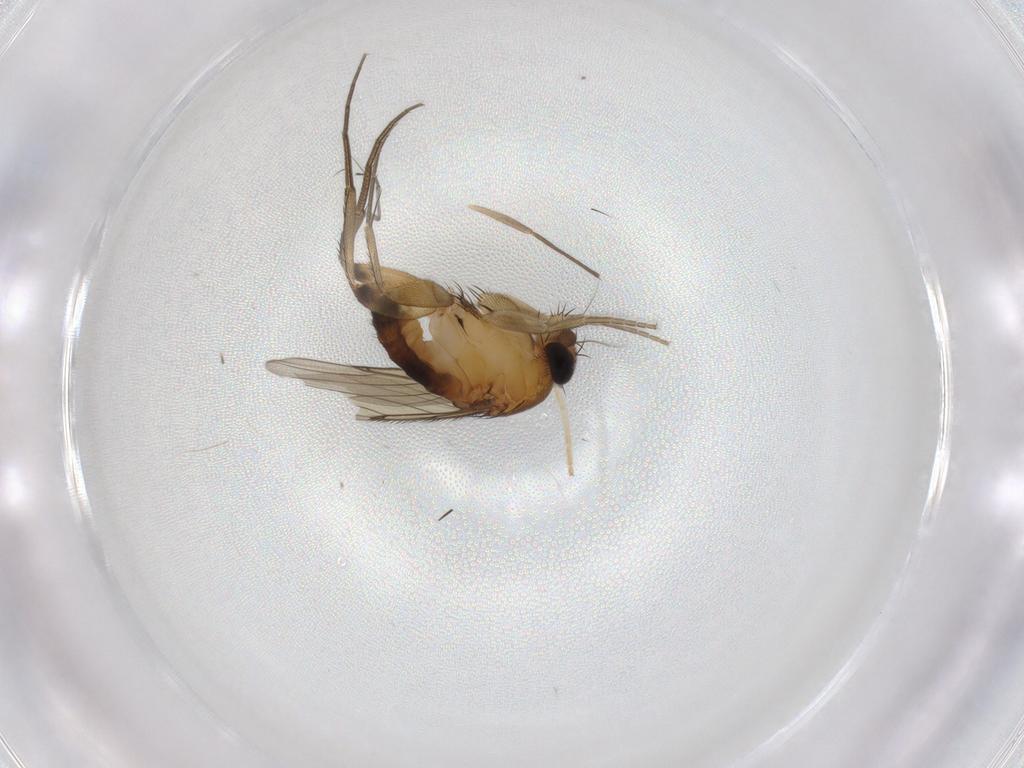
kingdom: Animalia
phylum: Arthropoda
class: Insecta
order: Diptera
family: Phoridae
